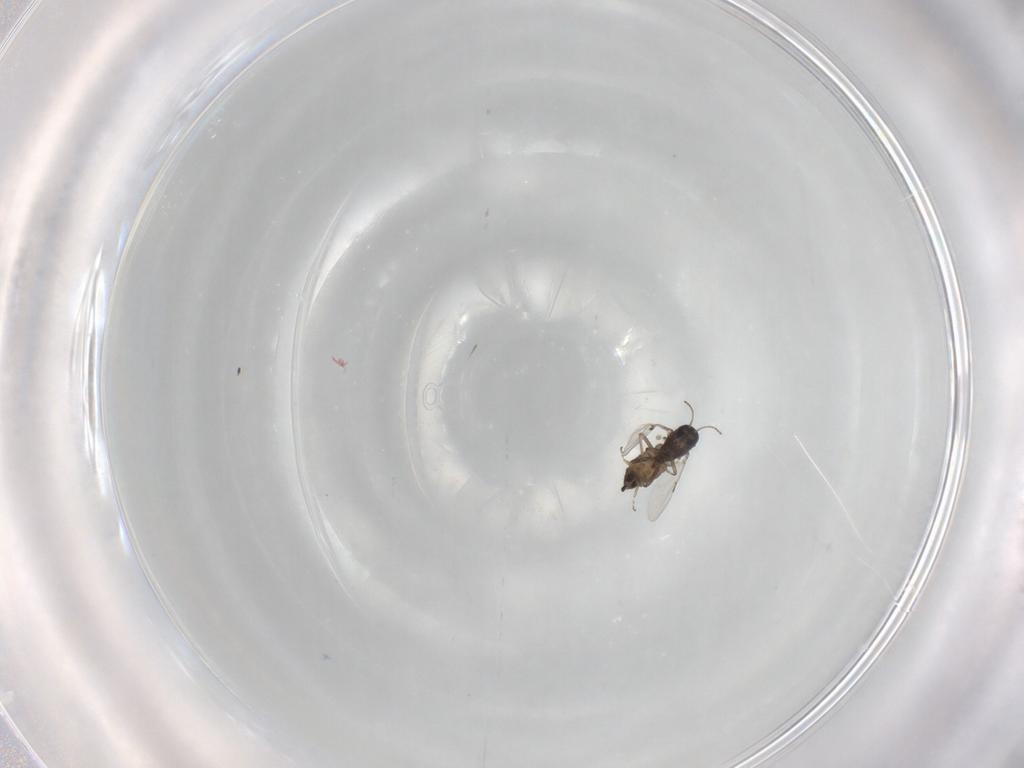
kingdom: Animalia
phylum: Arthropoda
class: Insecta
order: Diptera
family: Ceratopogonidae
